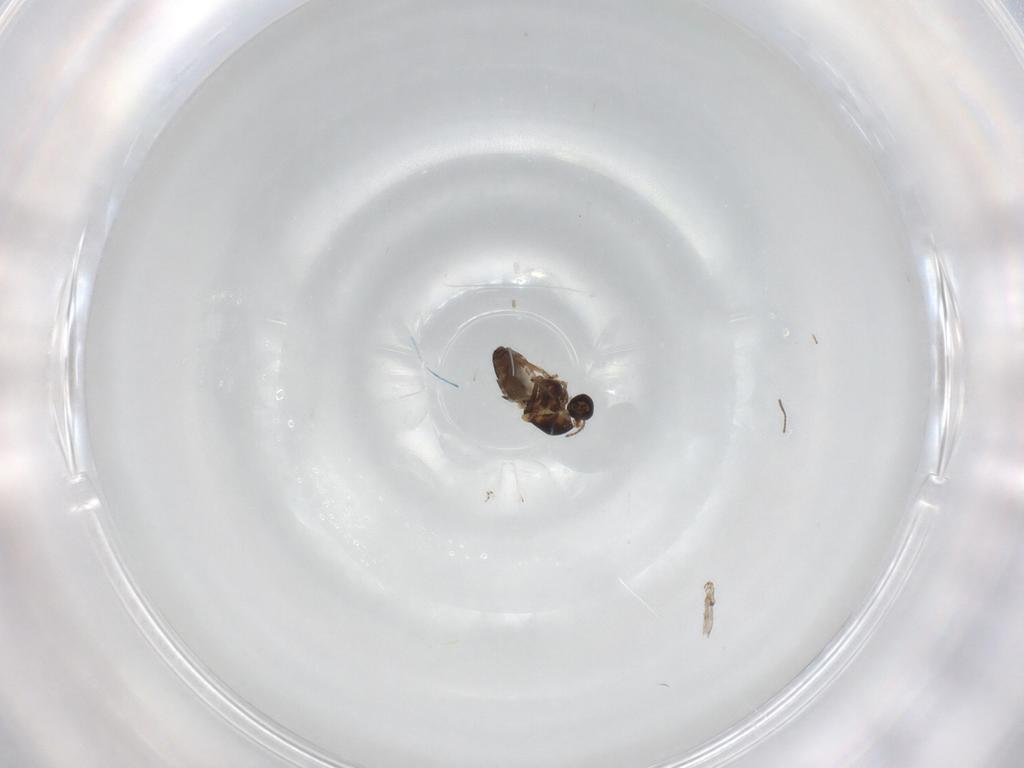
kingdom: Animalia
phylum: Arthropoda
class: Insecta
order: Diptera
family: Ceratopogonidae
